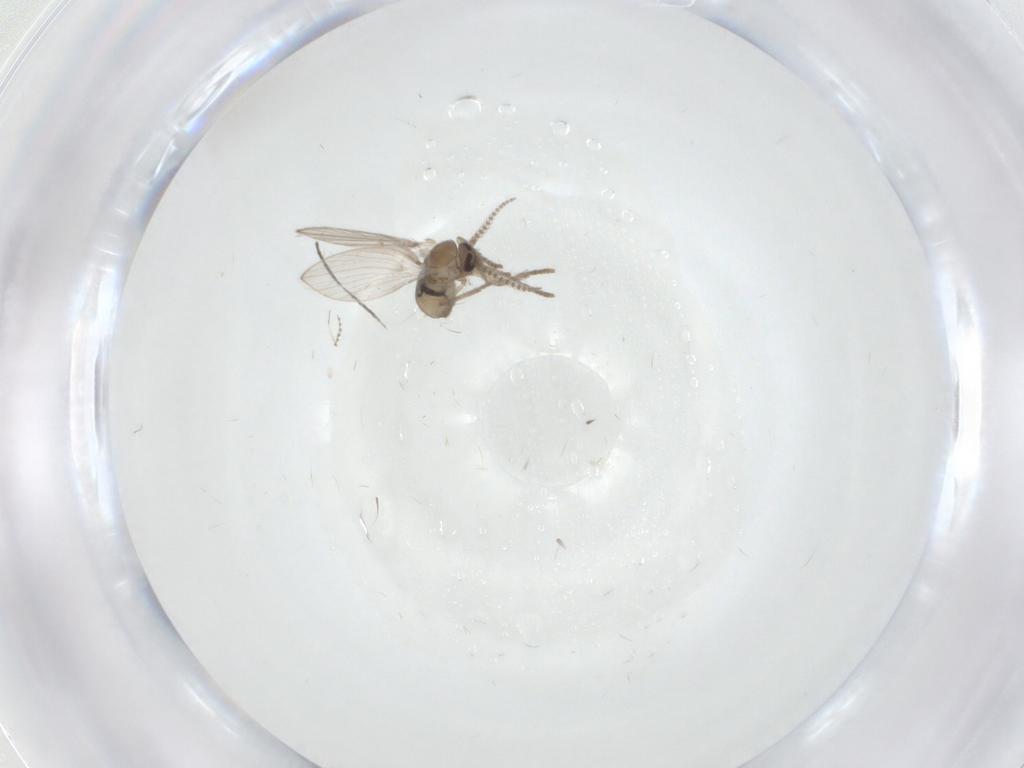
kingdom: Animalia
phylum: Arthropoda
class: Insecta
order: Diptera
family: Psychodidae
